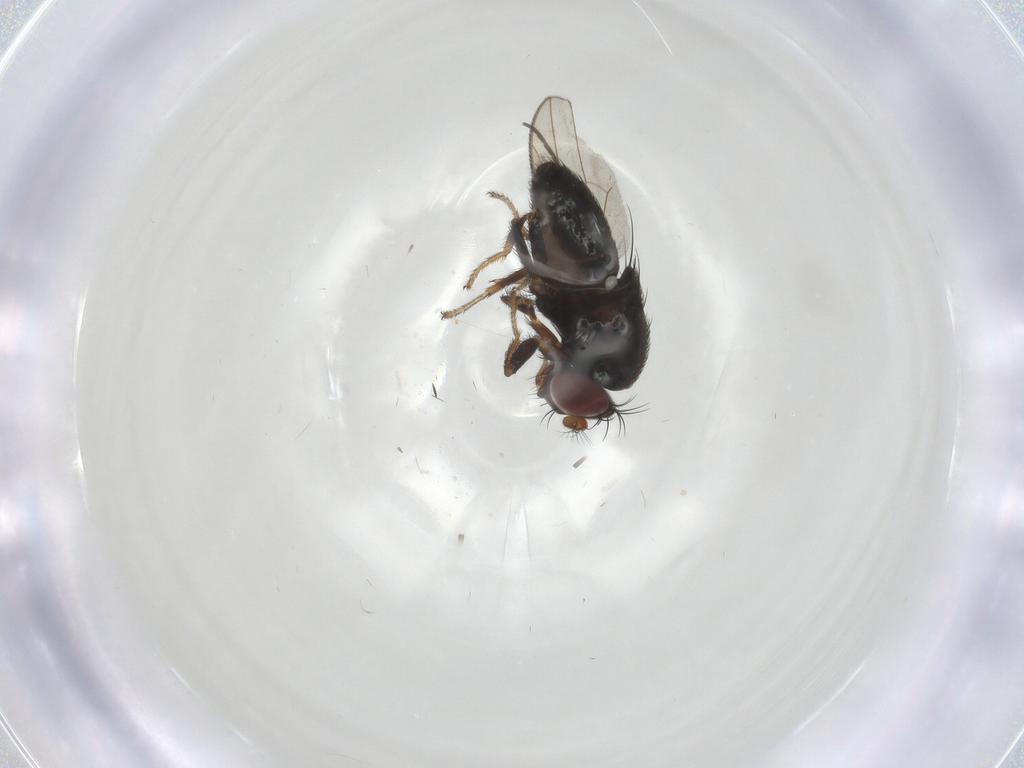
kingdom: Animalia
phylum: Arthropoda
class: Insecta
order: Diptera
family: Ephydridae
